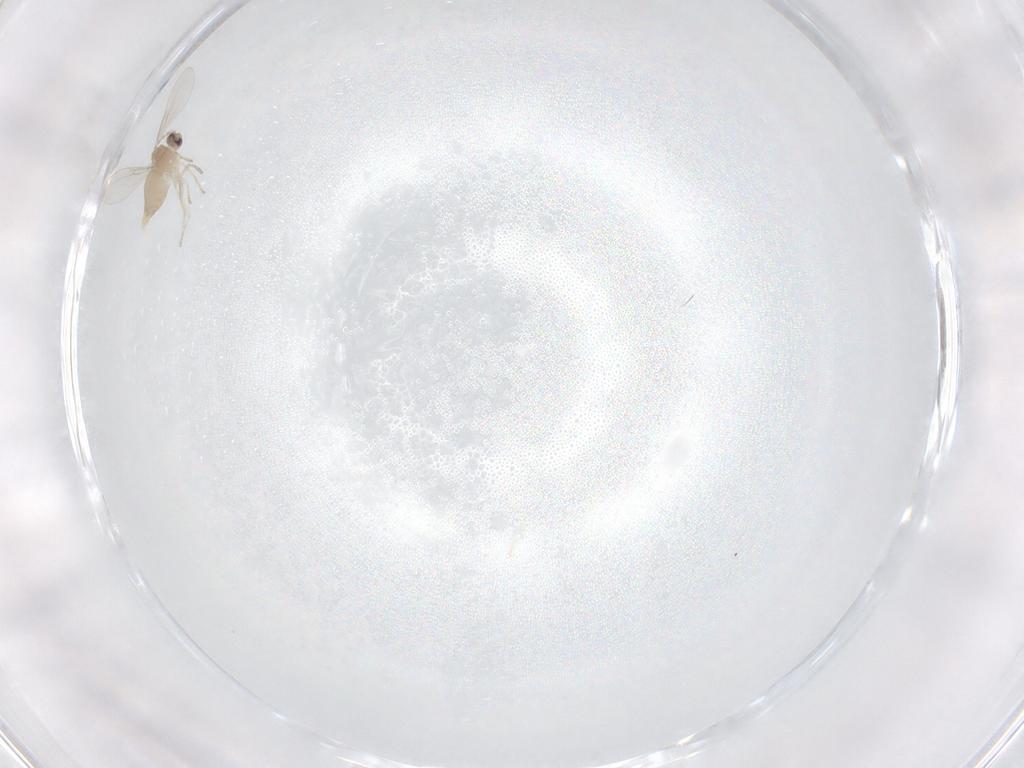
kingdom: Animalia
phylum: Arthropoda
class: Insecta
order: Diptera
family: Cecidomyiidae
